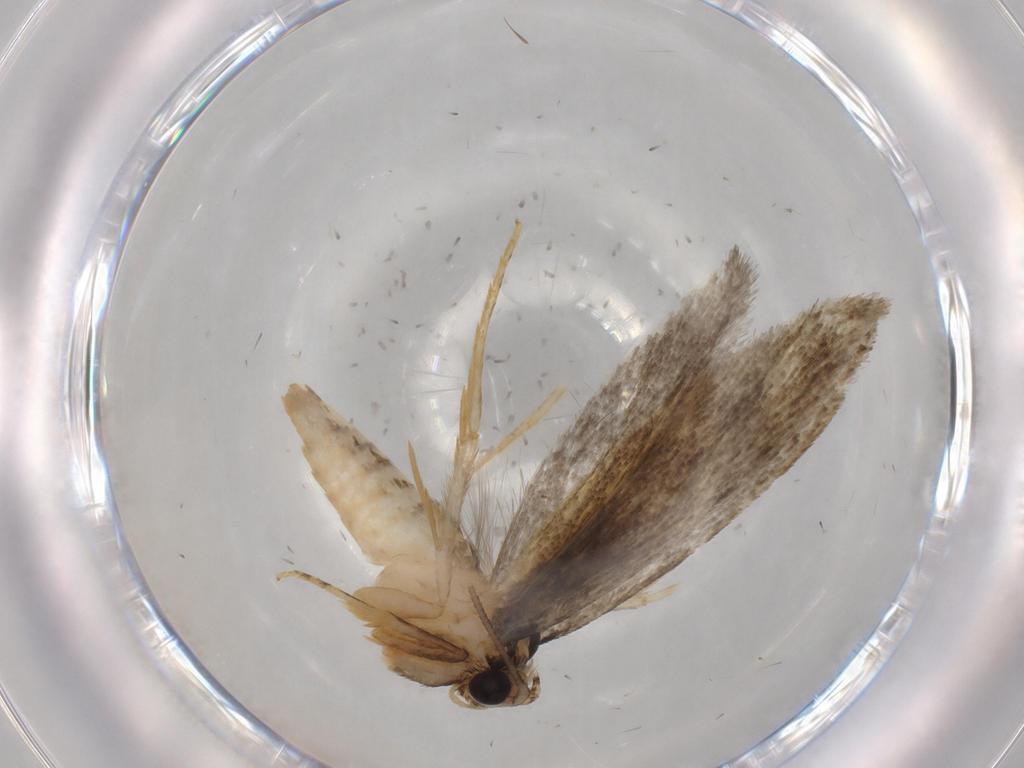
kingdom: Animalia
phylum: Arthropoda
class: Insecta
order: Lepidoptera
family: Tineidae
